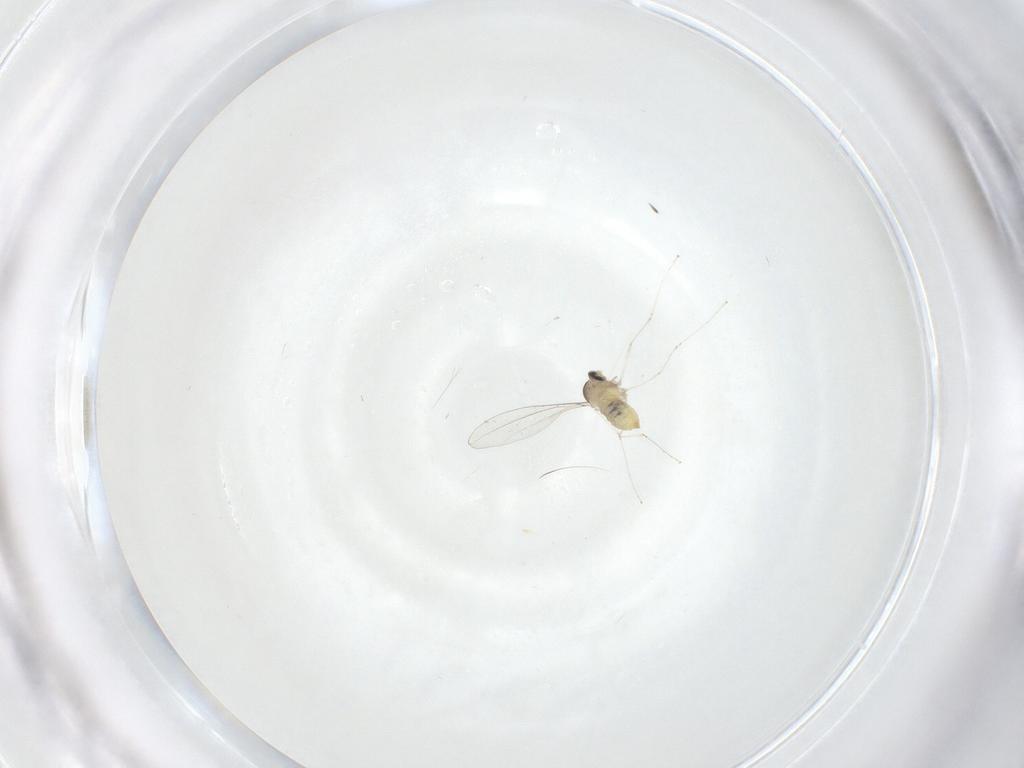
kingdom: Animalia
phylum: Arthropoda
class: Insecta
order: Diptera
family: Cecidomyiidae
